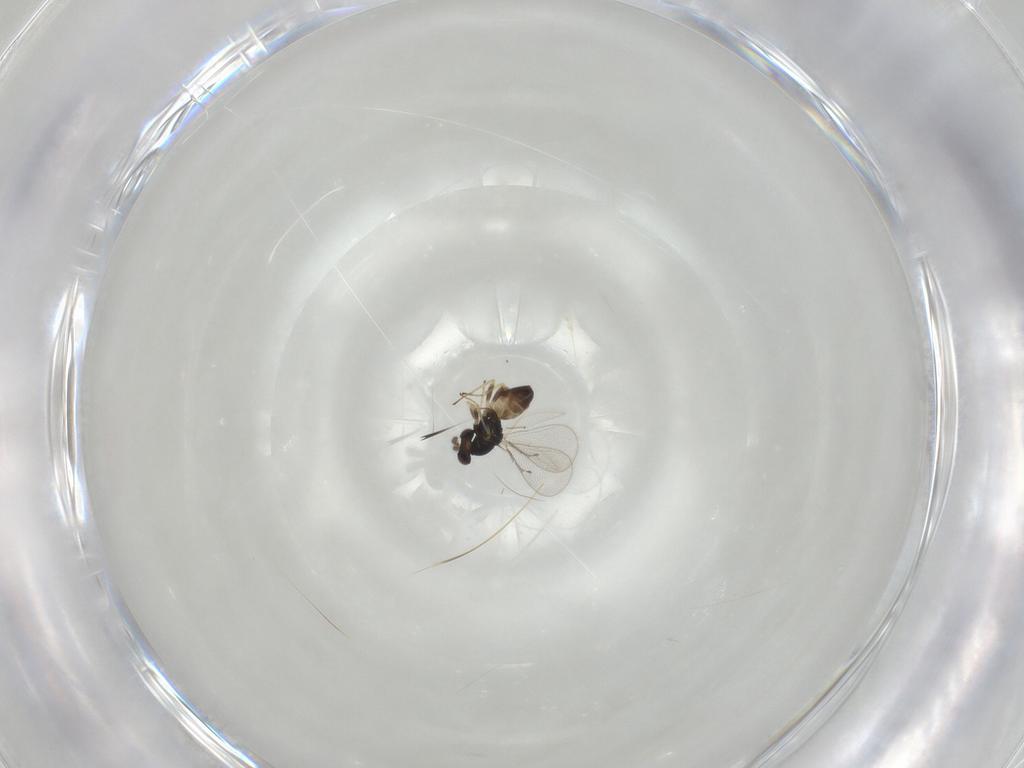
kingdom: Animalia
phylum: Arthropoda
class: Insecta
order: Hymenoptera
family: Eulophidae
